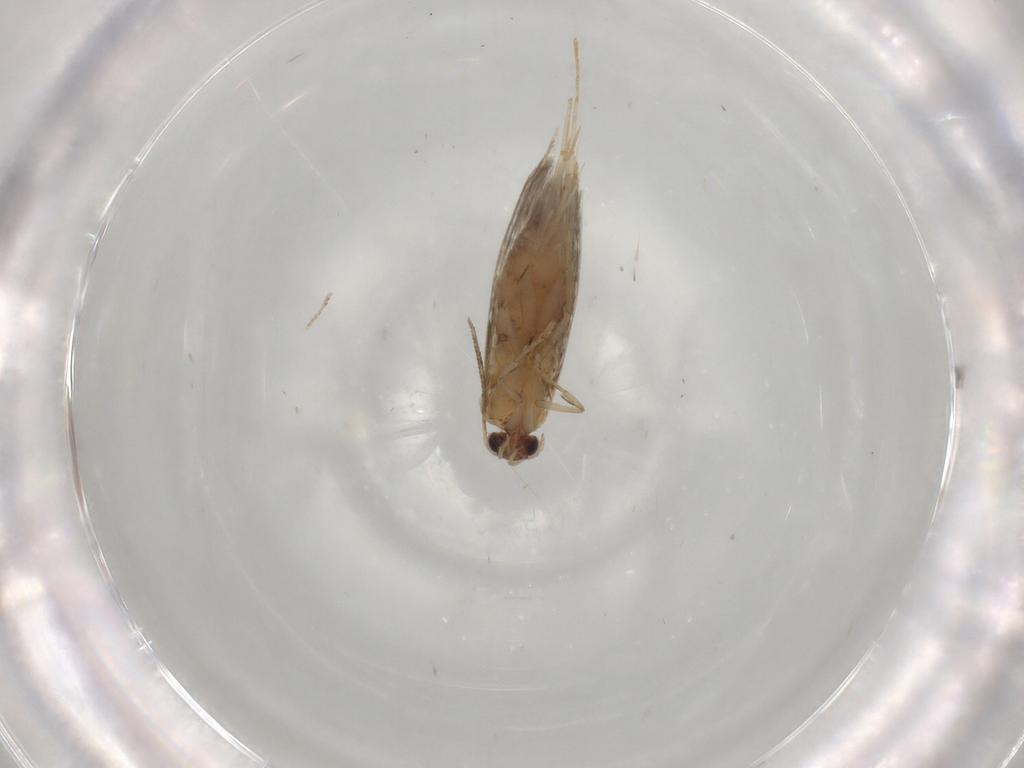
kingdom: Animalia
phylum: Arthropoda
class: Insecta
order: Lepidoptera
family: Tineidae
